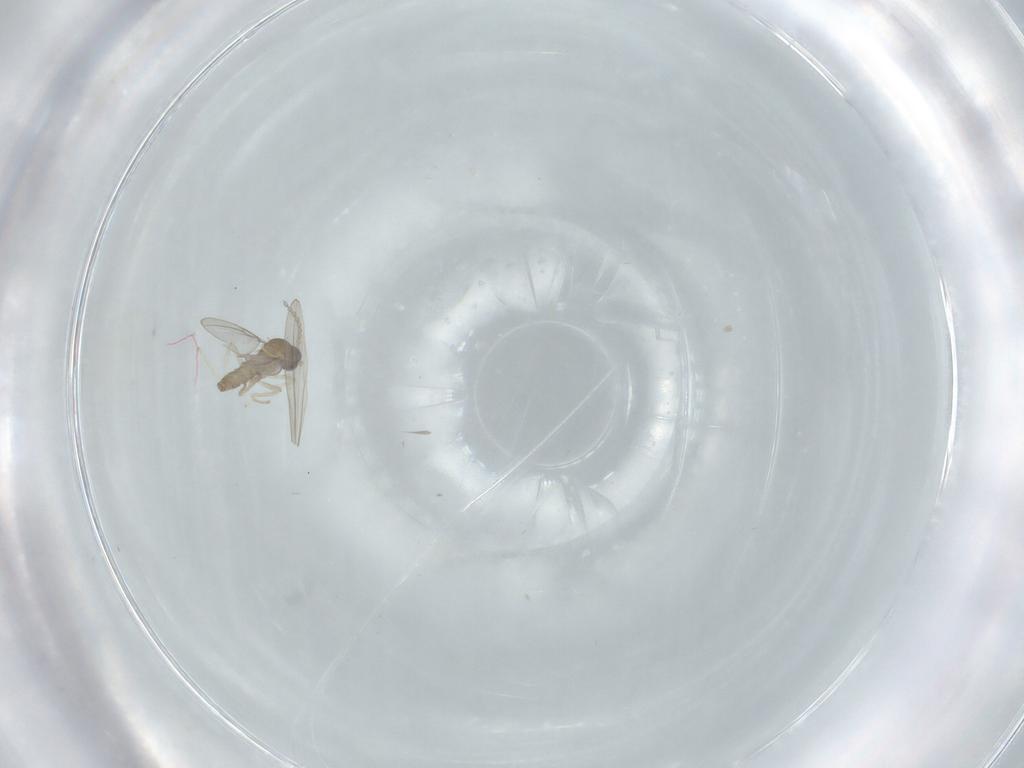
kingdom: Animalia
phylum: Arthropoda
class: Insecta
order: Diptera
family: Cecidomyiidae
